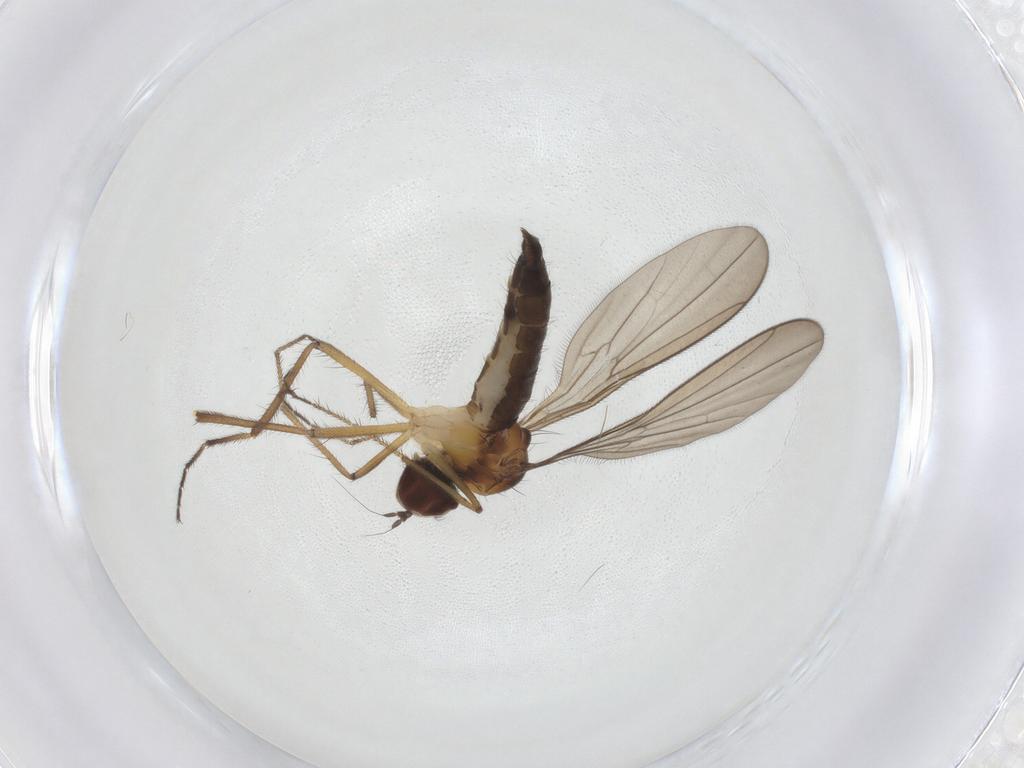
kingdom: Animalia
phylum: Arthropoda
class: Insecta
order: Diptera
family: Hybotidae
